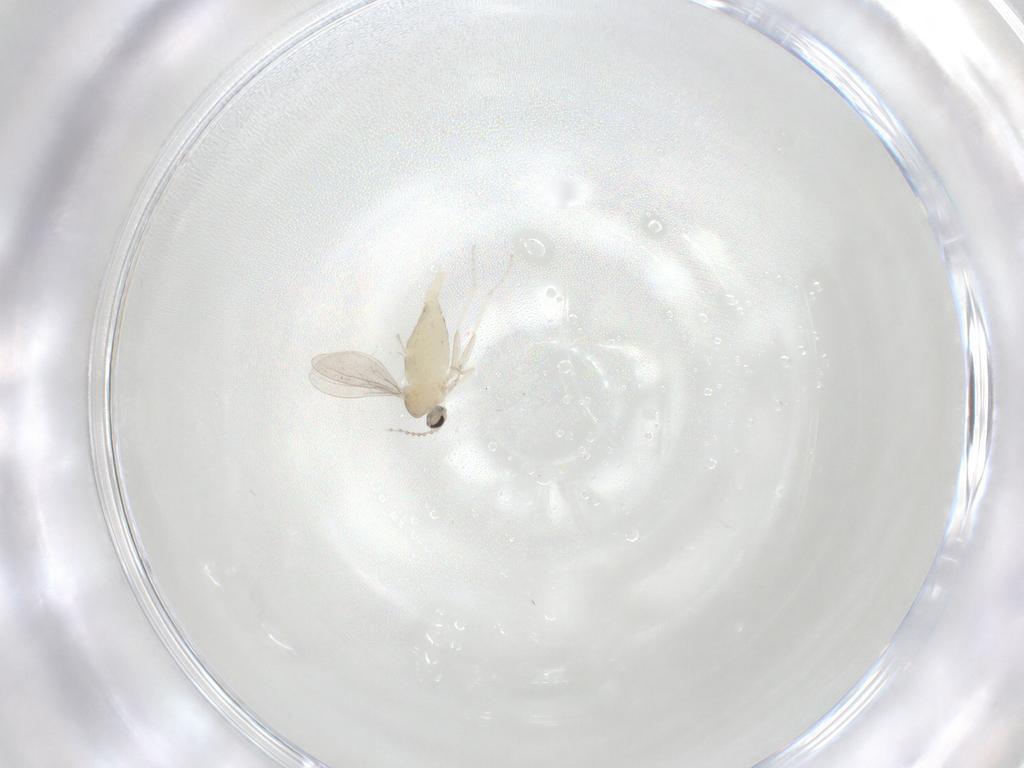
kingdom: Animalia
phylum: Arthropoda
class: Insecta
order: Diptera
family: Cecidomyiidae
